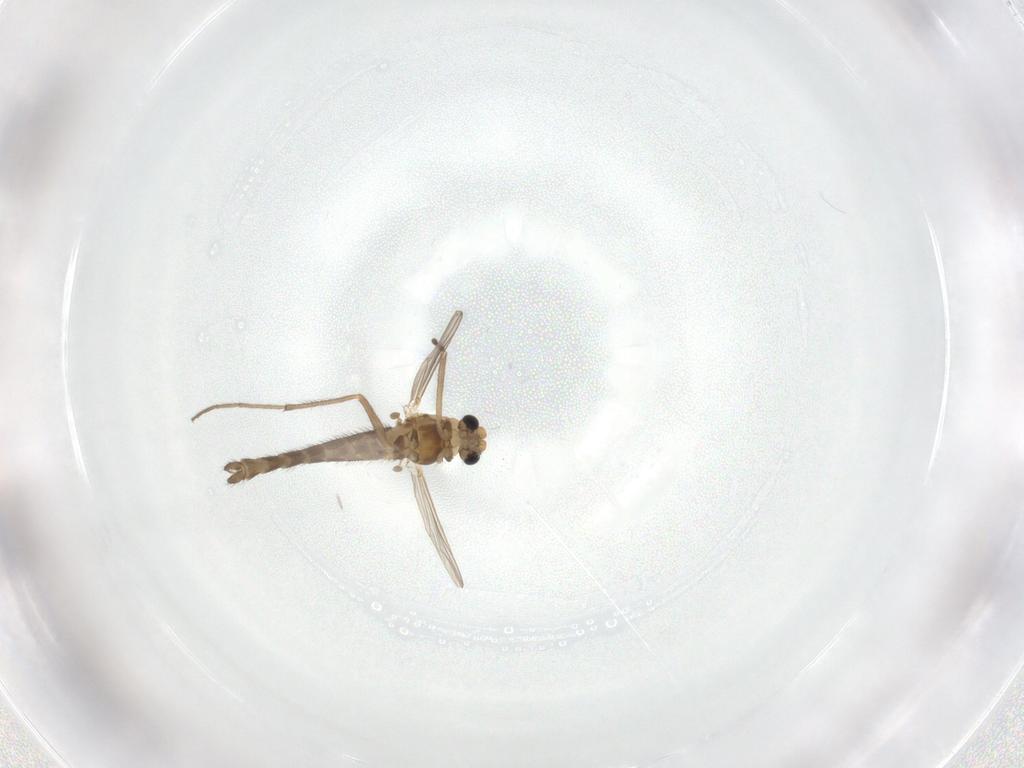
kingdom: Animalia
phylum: Arthropoda
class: Insecta
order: Diptera
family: Chironomidae
